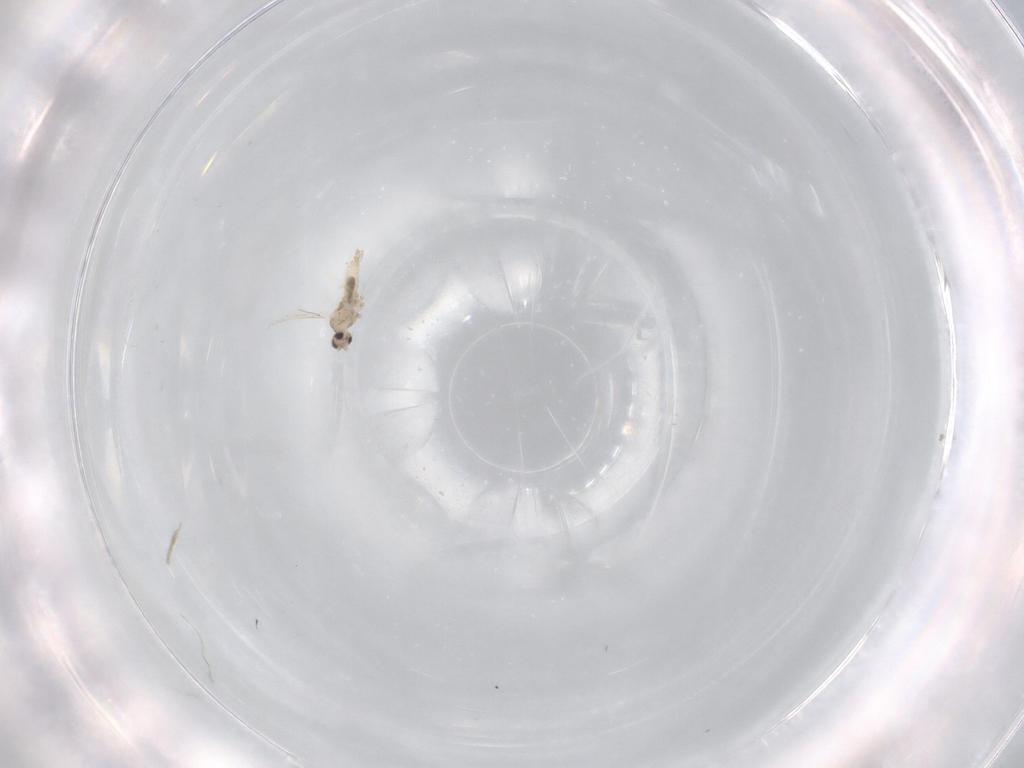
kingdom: Animalia
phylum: Arthropoda
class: Insecta
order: Diptera
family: Cecidomyiidae
